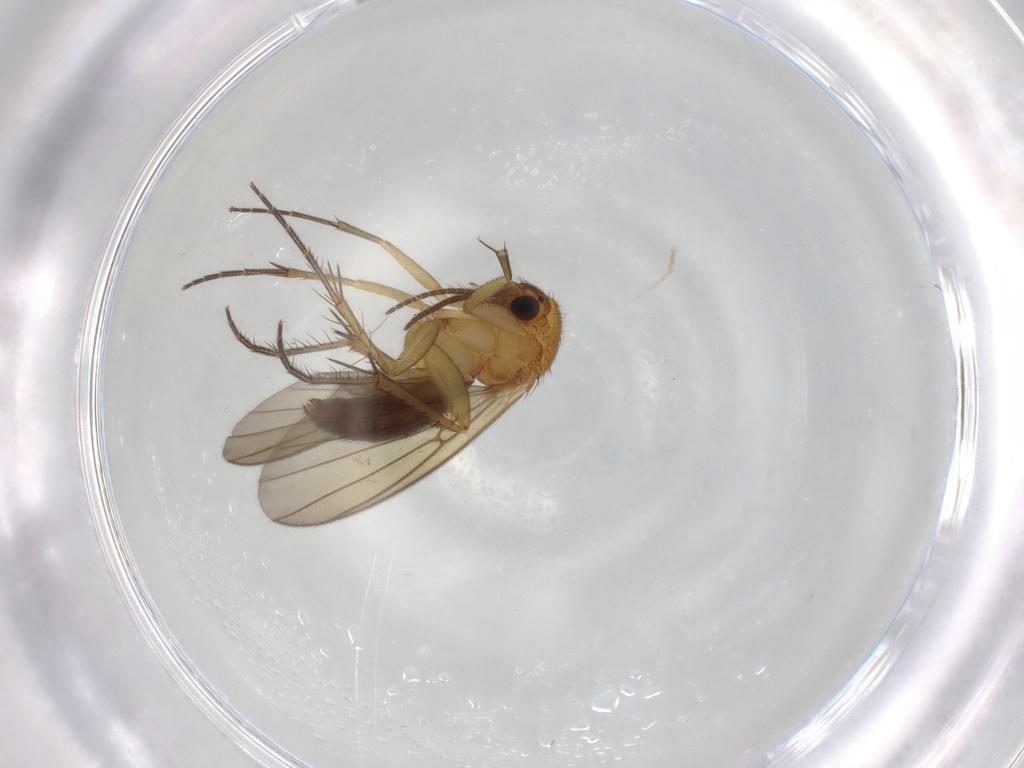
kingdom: Animalia
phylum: Arthropoda
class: Insecta
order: Diptera
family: Mycetophilidae
